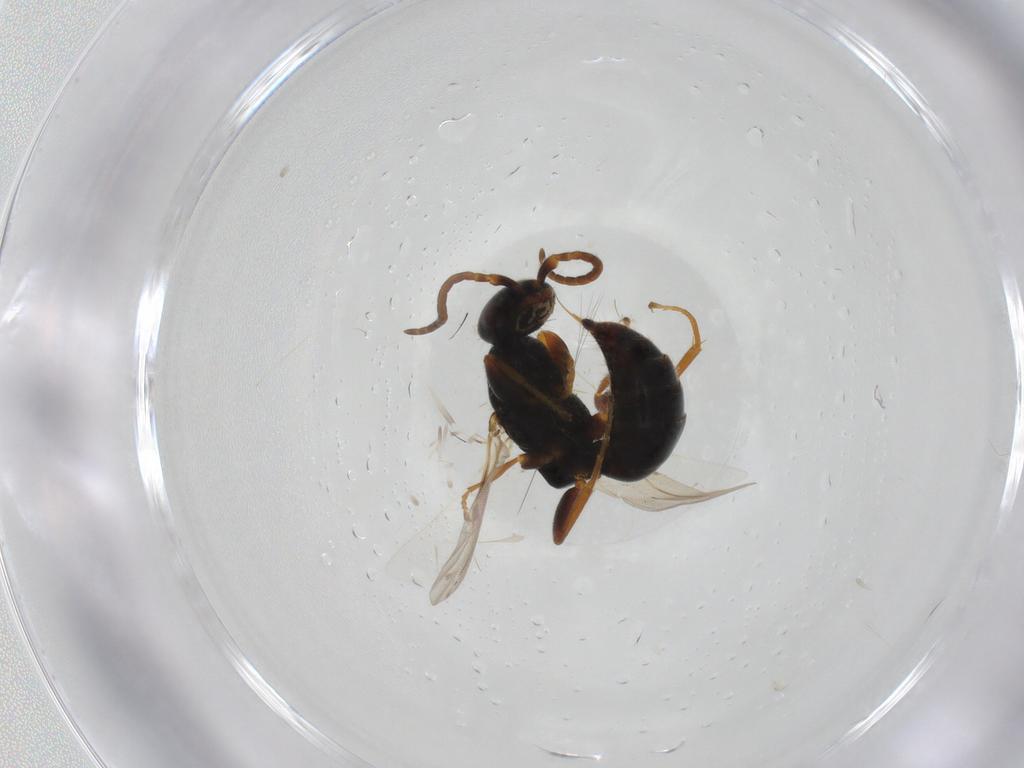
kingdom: Animalia
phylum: Arthropoda
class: Insecta
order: Hymenoptera
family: Bethylidae
